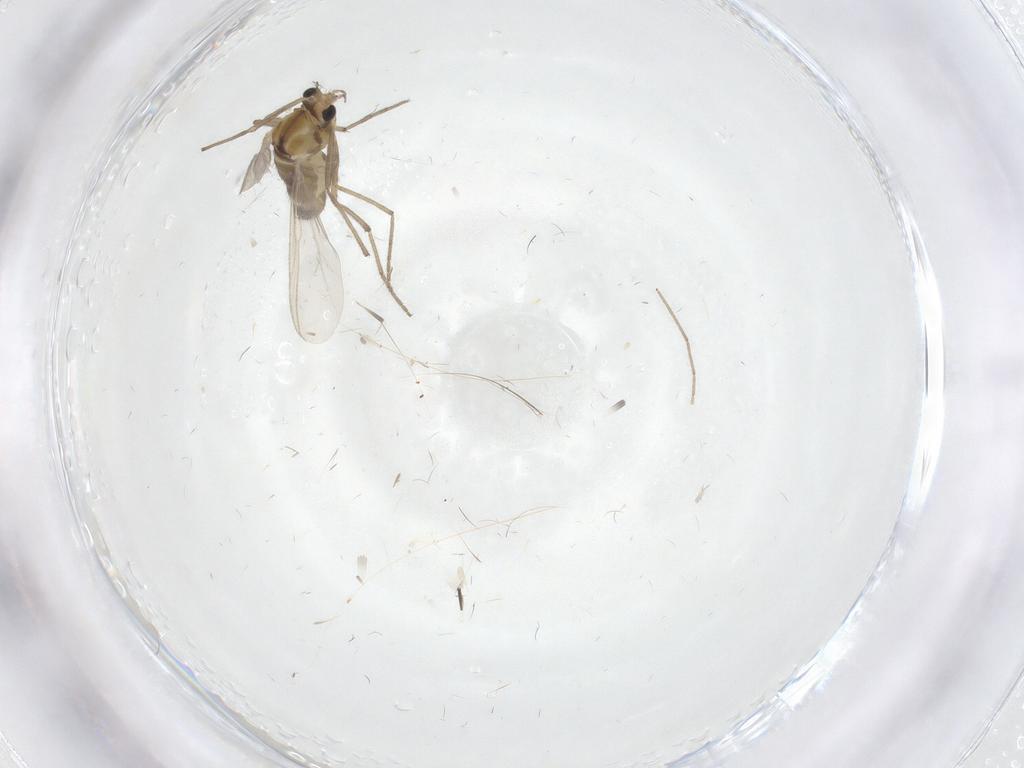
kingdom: Animalia
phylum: Arthropoda
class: Insecta
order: Diptera
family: Chironomidae
